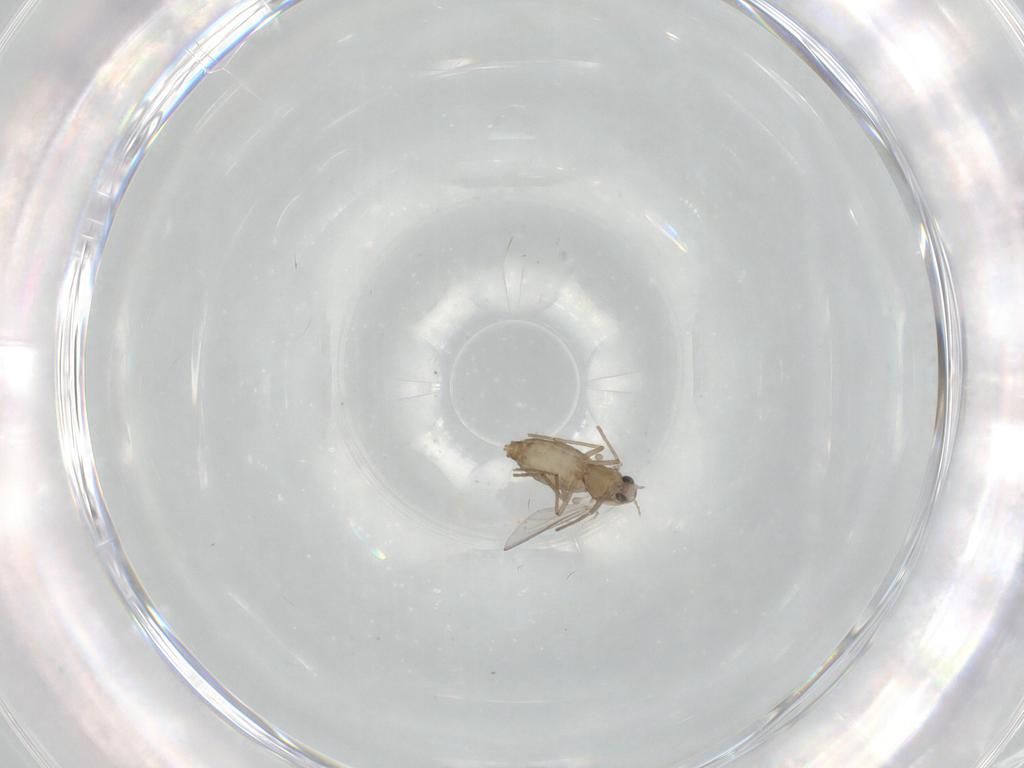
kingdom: Animalia
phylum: Arthropoda
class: Insecta
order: Diptera
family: Chironomidae
